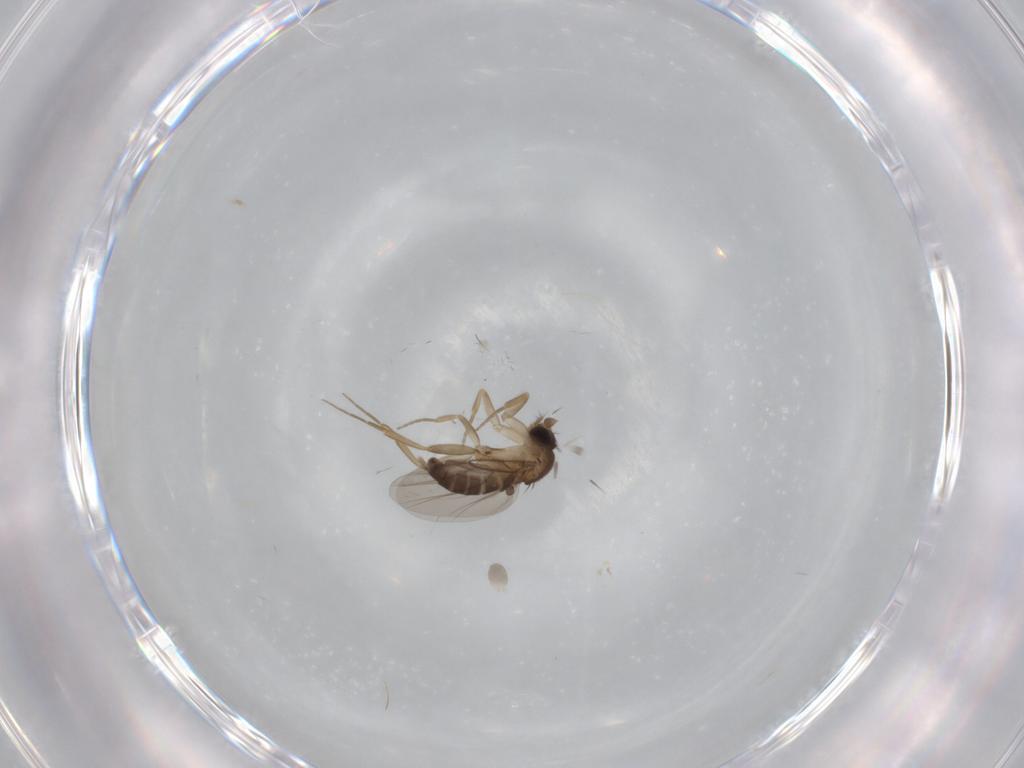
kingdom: Animalia
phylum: Arthropoda
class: Insecta
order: Diptera
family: Phoridae
